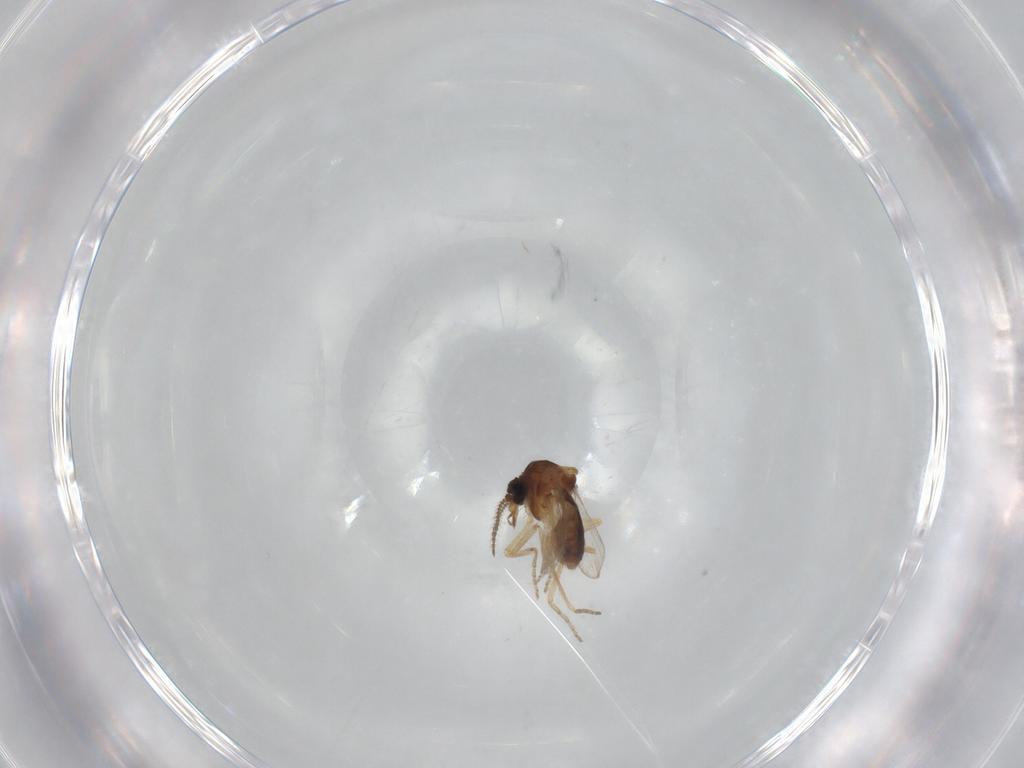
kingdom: Animalia
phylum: Arthropoda
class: Insecta
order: Diptera
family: Ceratopogonidae
